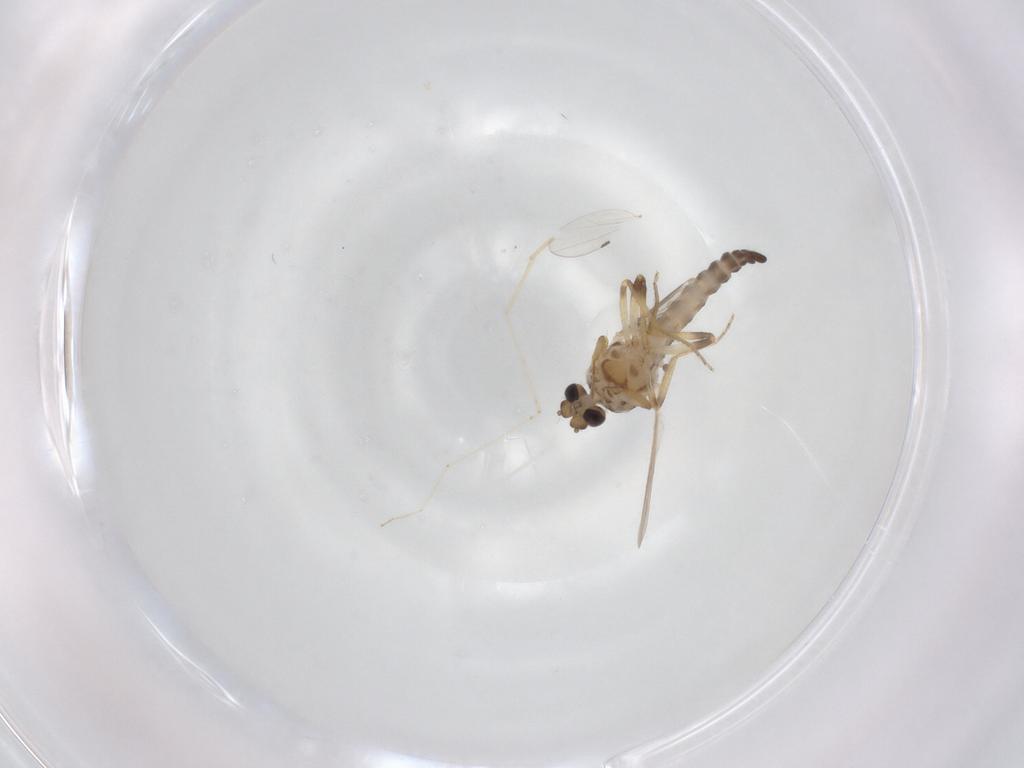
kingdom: Animalia
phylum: Arthropoda
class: Insecta
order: Diptera
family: Ceratopogonidae
